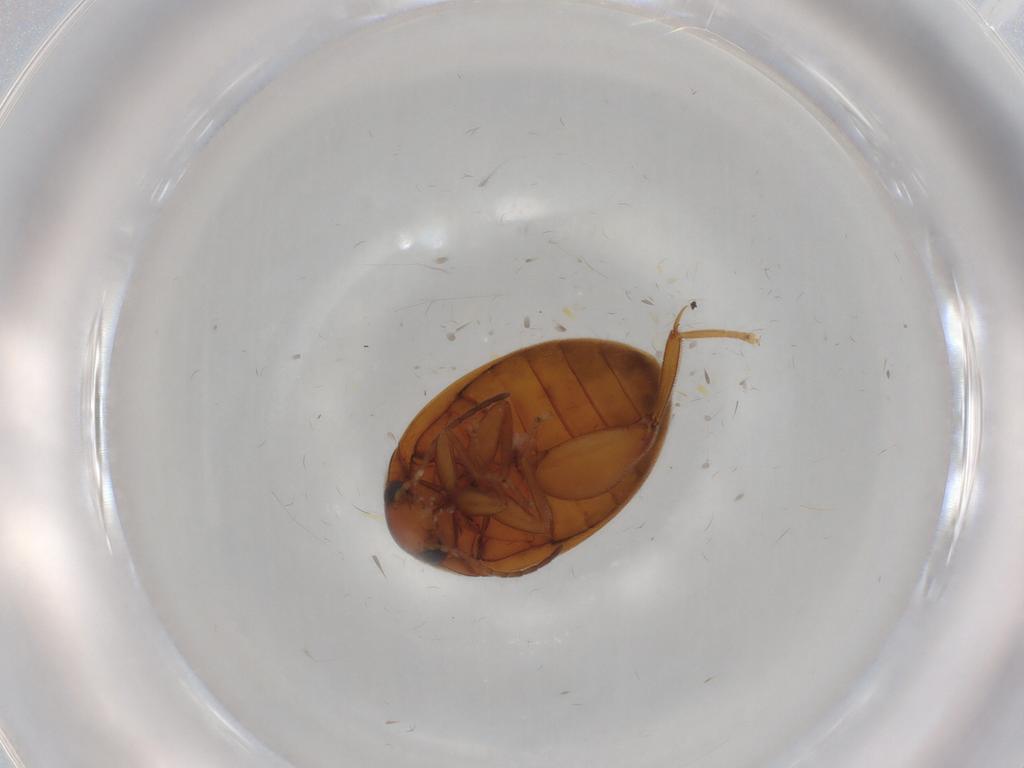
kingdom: Animalia
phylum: Arthropoda
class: Insecta
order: Coleoptera
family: Scirtidae
